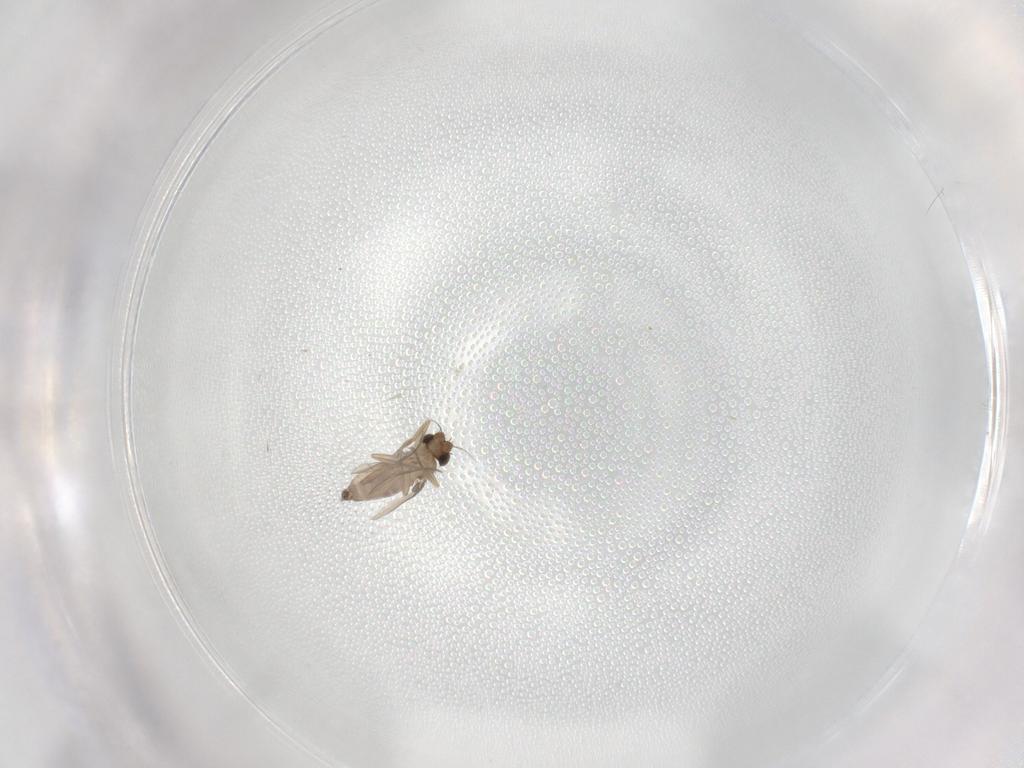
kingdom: Animalia
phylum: Arthropoda
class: Insecta
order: Diptera
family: Phoridae
